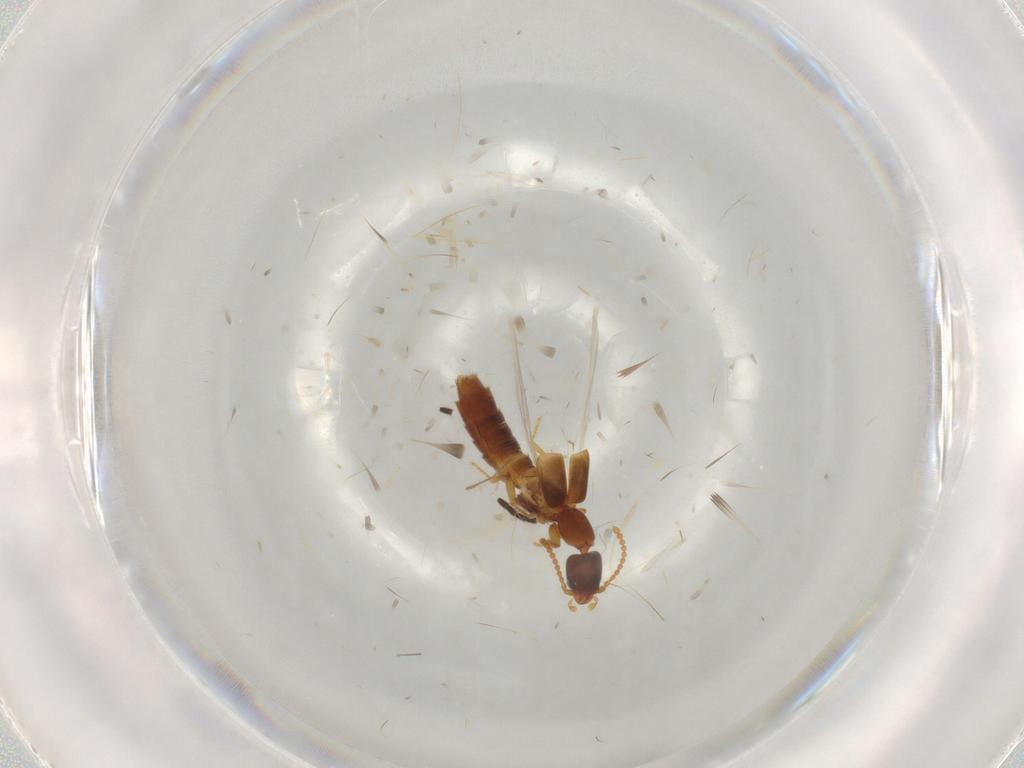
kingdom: Animalia
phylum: Arthropoda
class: Insecta
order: Coleoptera
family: Staphylinidae
